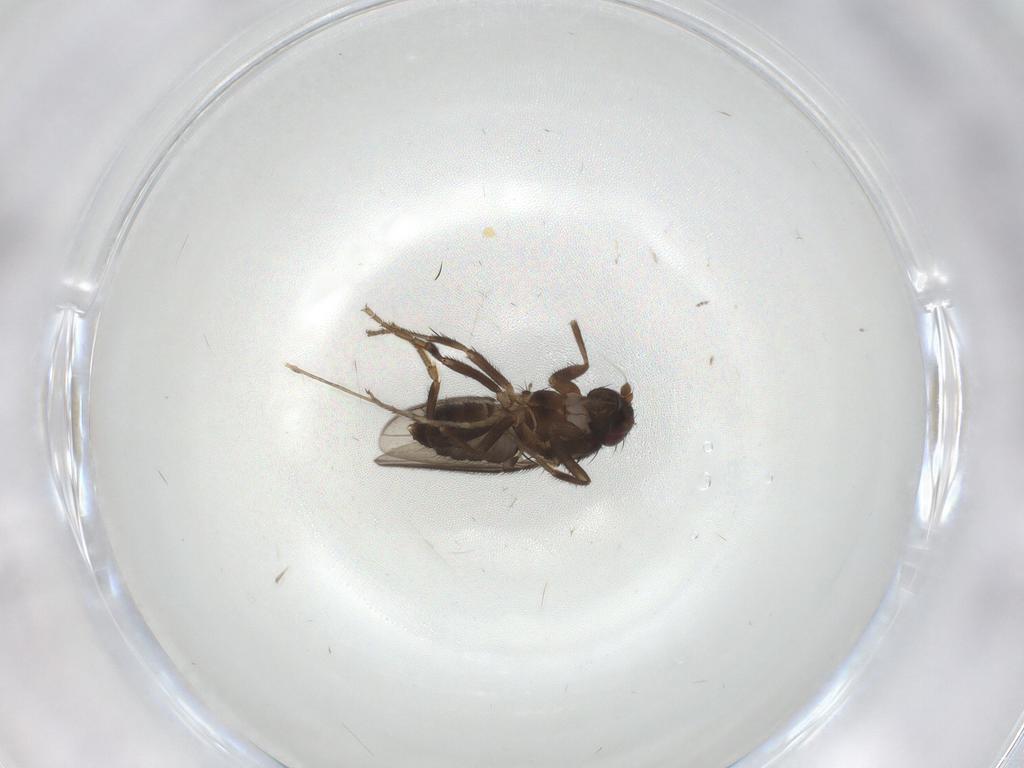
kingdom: Animalia
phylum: Arthropoda
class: Insecta
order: Diptera
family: Sphaeroceridae
